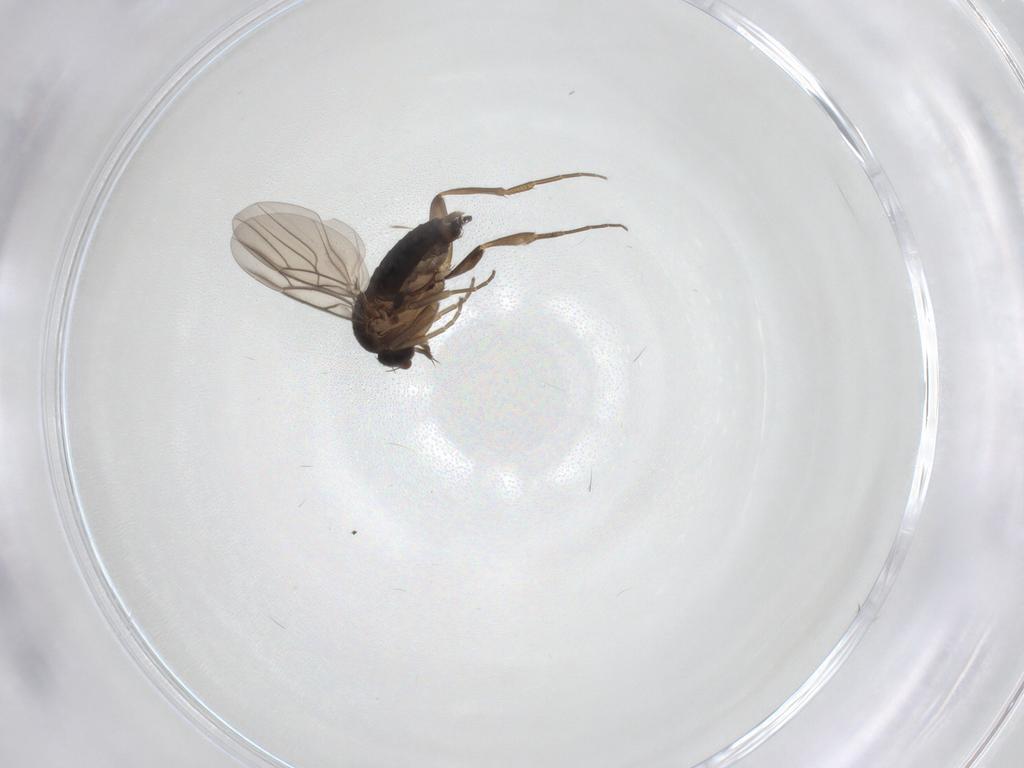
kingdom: Animalia
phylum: Arthropoda
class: Insecta
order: Diptera
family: Phoridae
